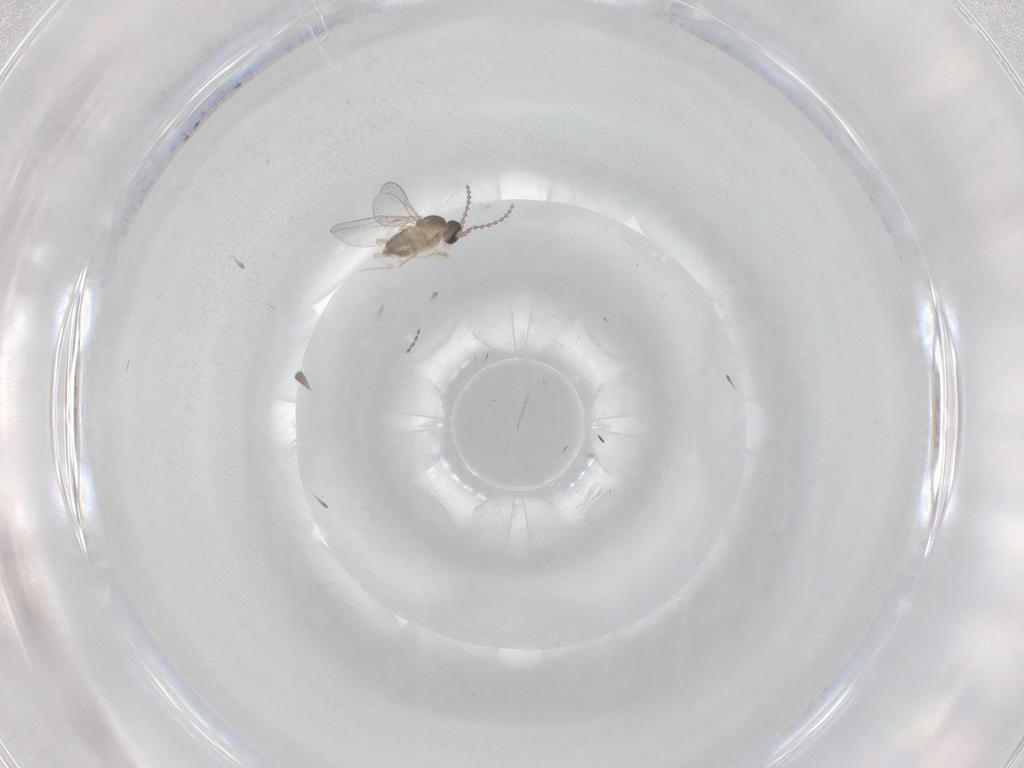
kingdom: Animalia
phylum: Arthropoda
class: Insecta
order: Diptera
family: Cecidomyiidae
